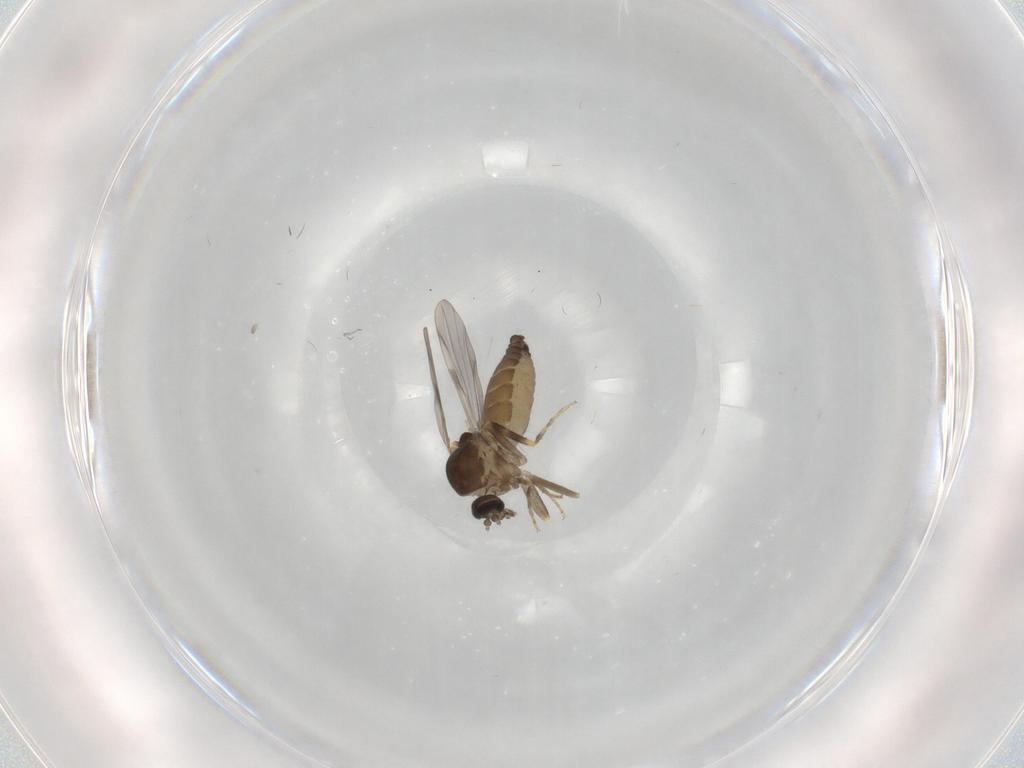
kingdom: Animalia
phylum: Arthropoda
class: Insecta
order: Diptera
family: Ceratopogonidae
